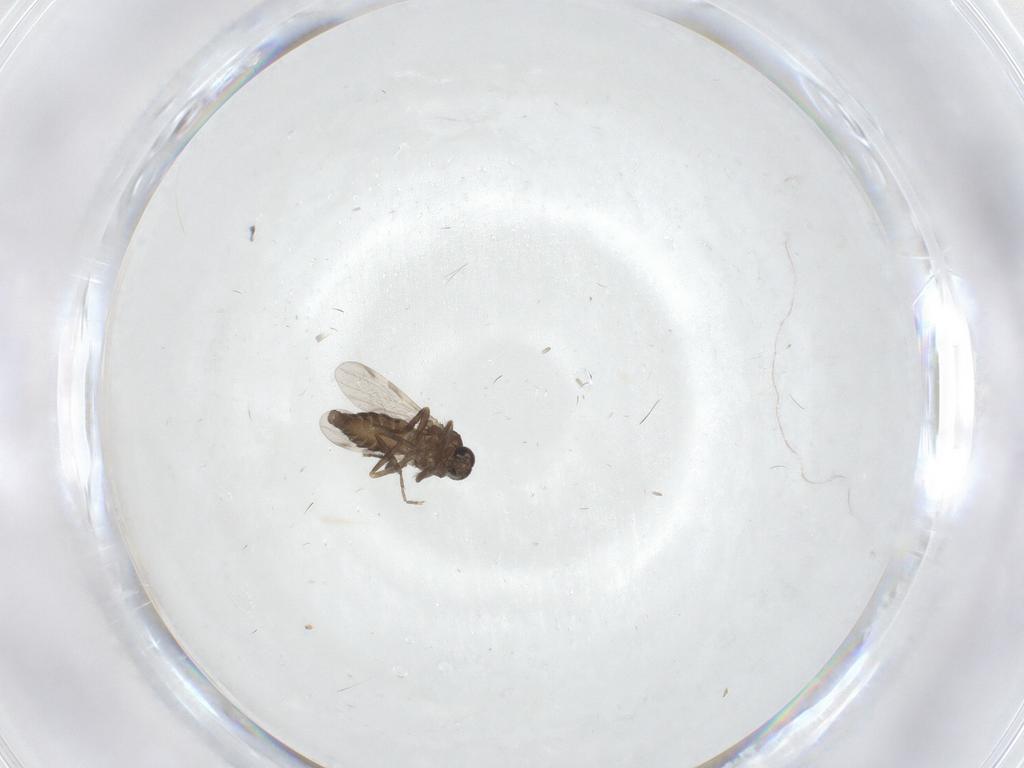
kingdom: Animalia
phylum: Arthropoda
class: Insecta
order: Diptera
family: Ceratopogonidae
